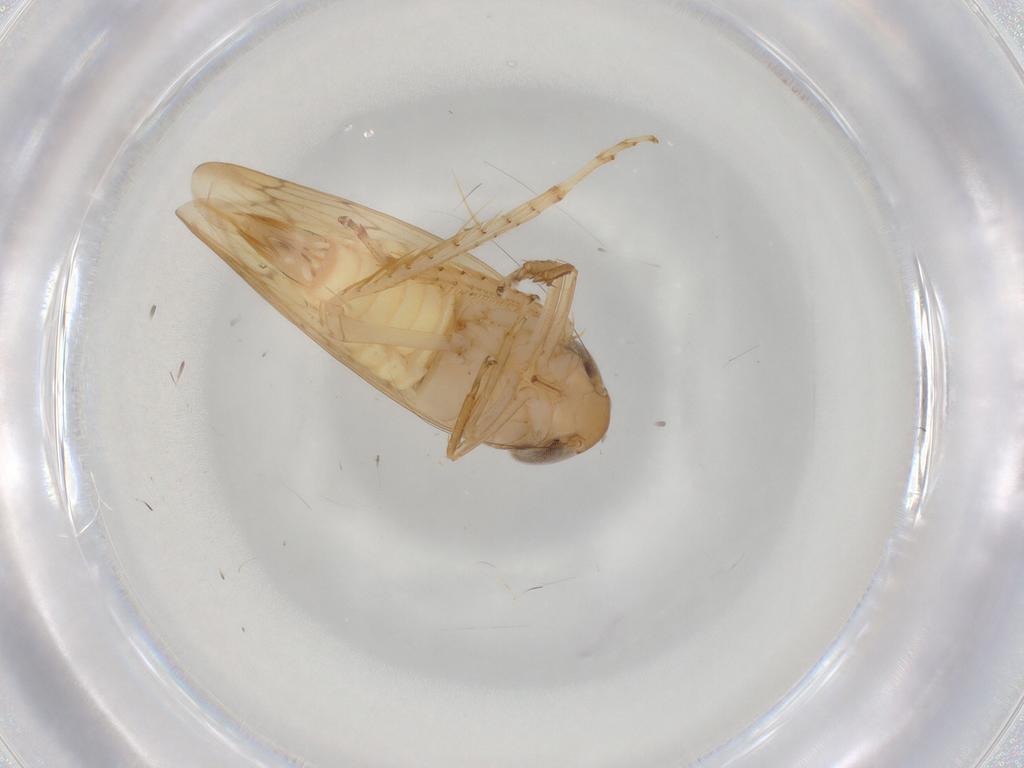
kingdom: Animalia
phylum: Arthropoda
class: Insecta
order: Hemiptera
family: Cicadellidae
